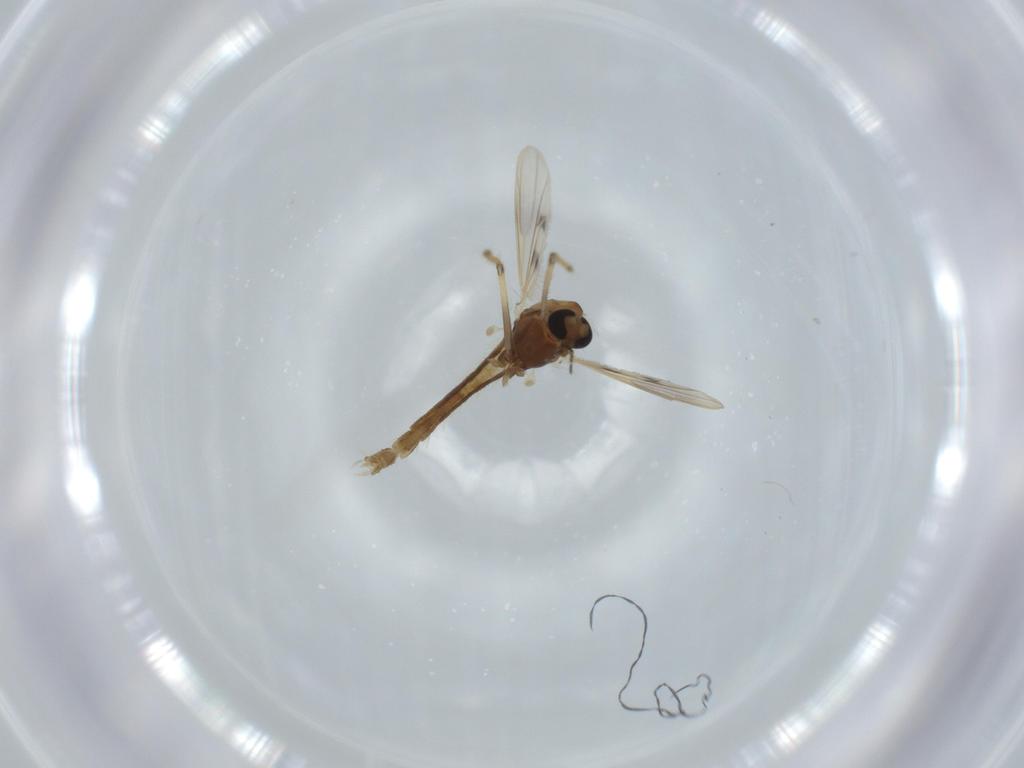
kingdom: Animalia
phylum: Arthropoda
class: Insecta
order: Diptera
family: Chironomidae
